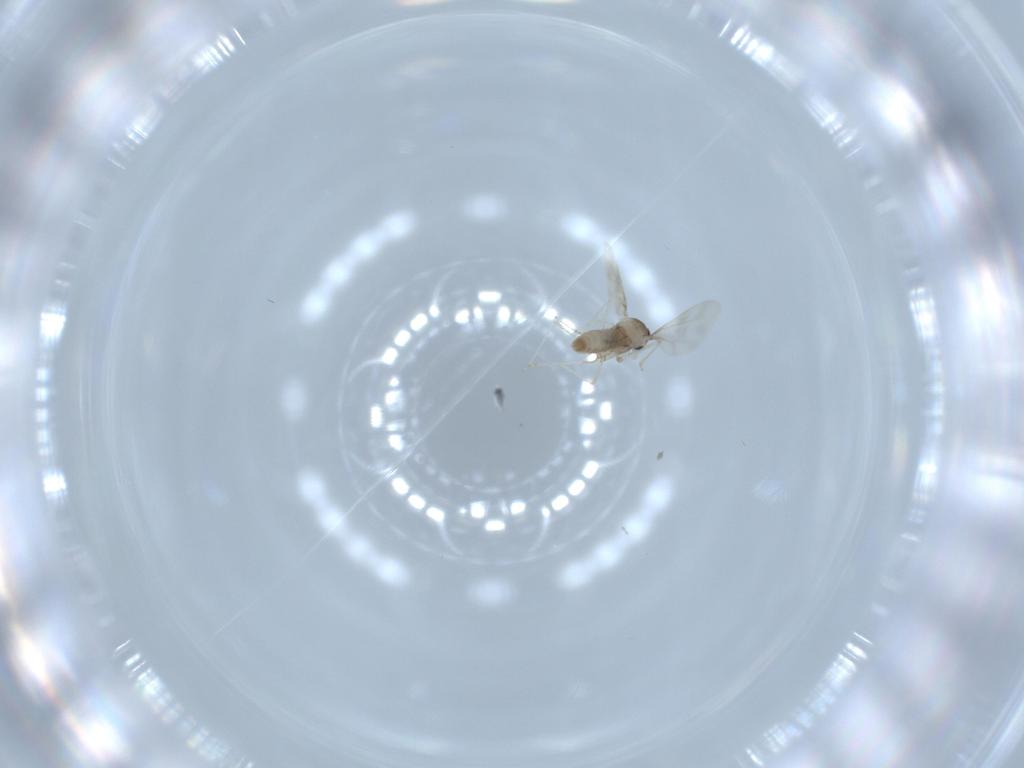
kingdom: Animalia
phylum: Arthropoda
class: Insecta
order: Diptera
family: Cecidomyiidae
